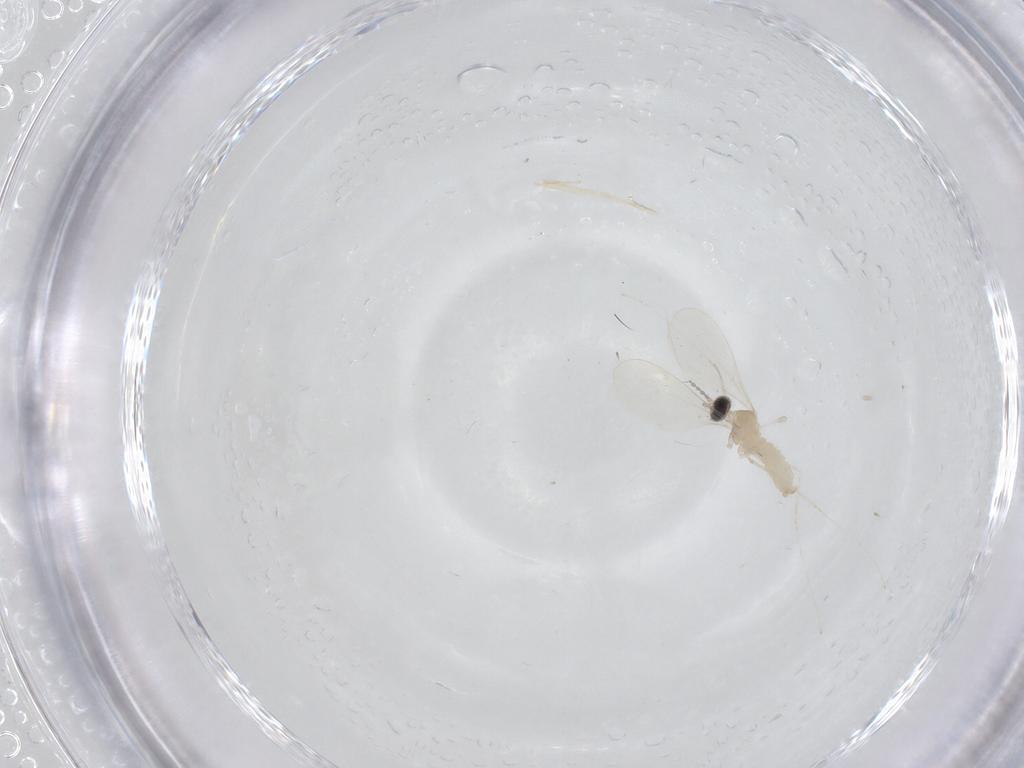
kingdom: Animalia
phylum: Arthropoda
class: Insecta
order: Diptera
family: Cecidomyiidae
